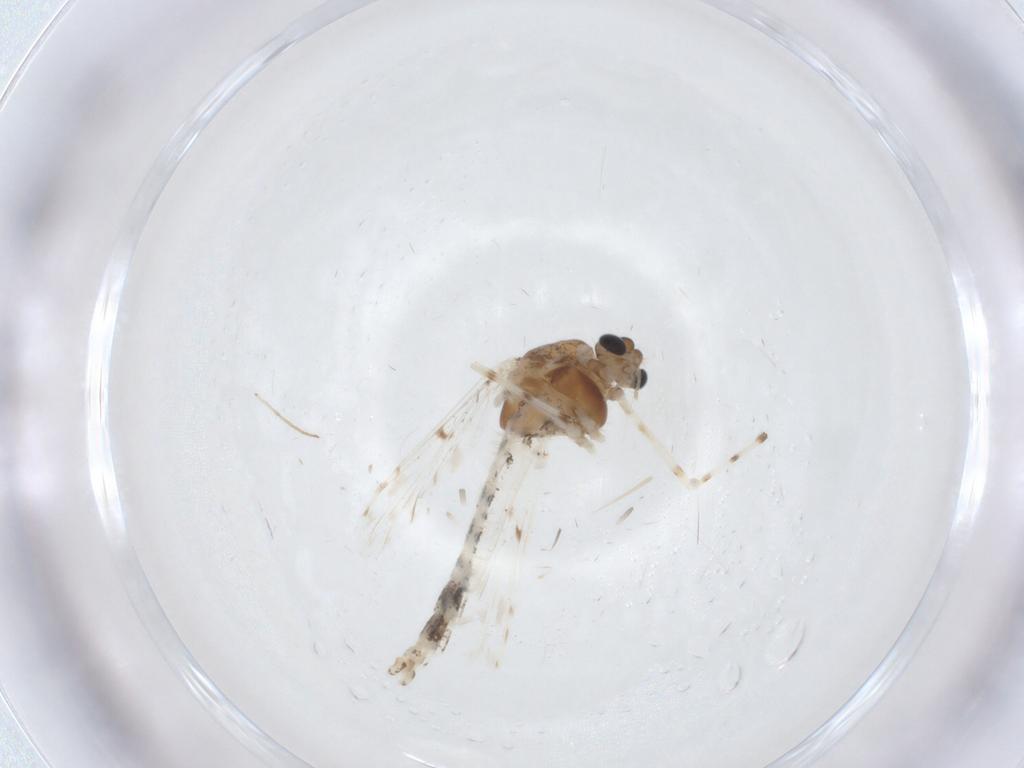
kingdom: Animalia
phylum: Arthropoda
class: Insecta
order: Diptera
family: Chironomidae
